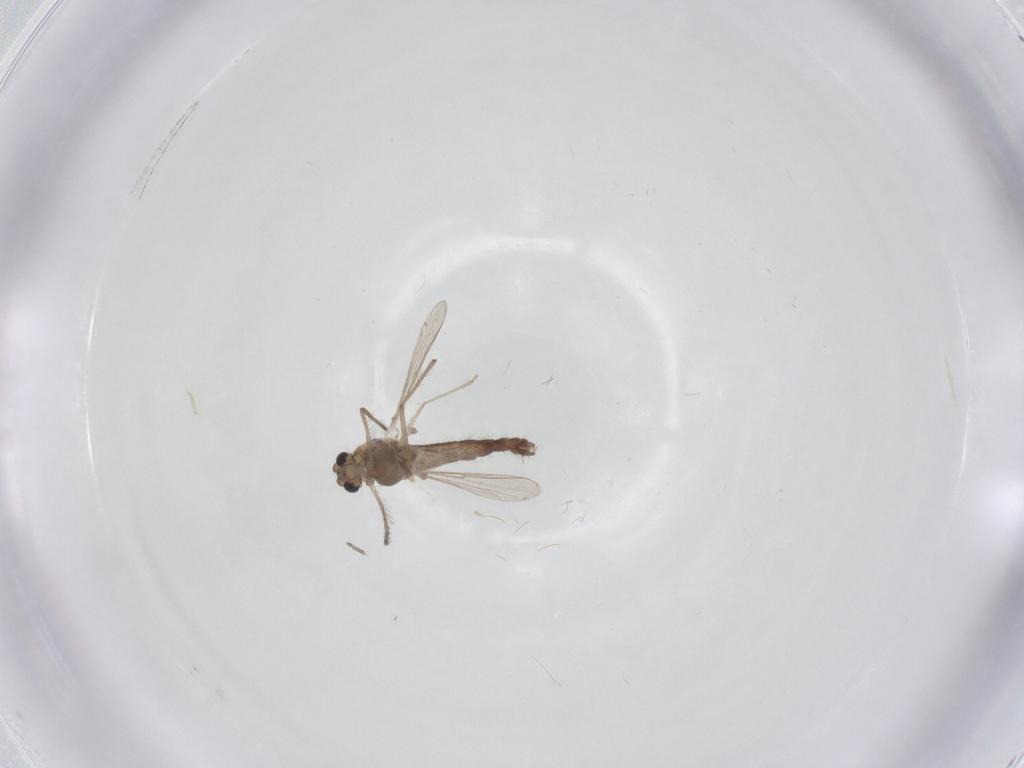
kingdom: Animalia
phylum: Arthropoda
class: Insecta
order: Diptera
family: Chironomidae
